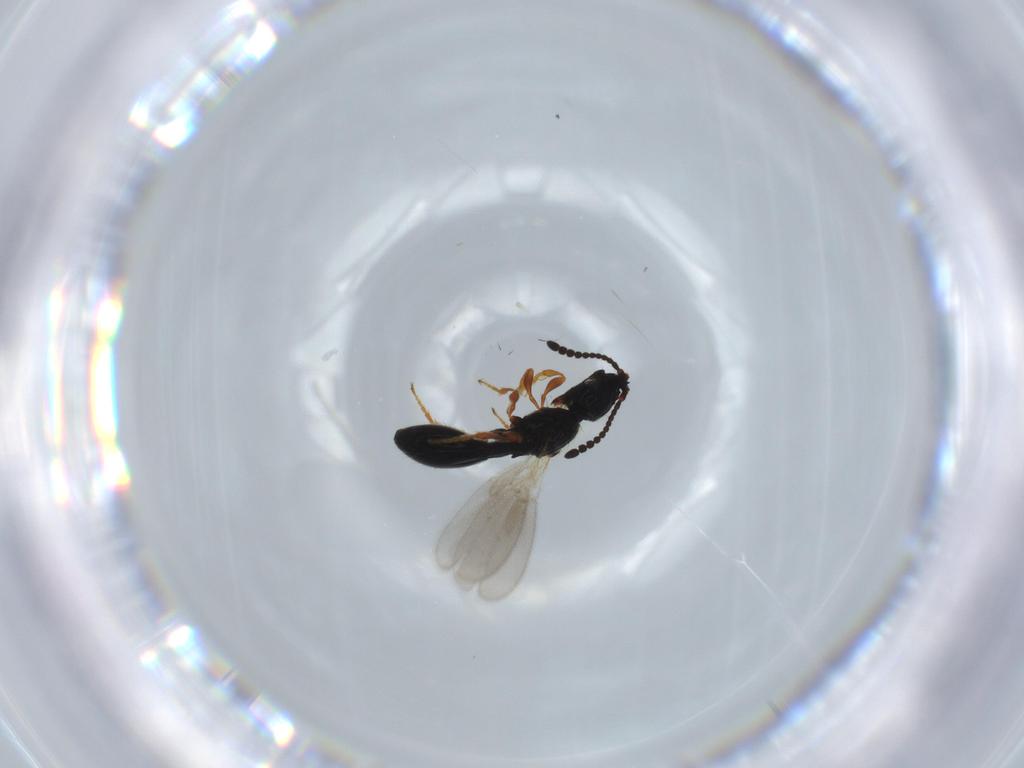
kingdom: Animalia
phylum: Arthropoda
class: Insecta
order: Hymenoptera
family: Diapriidae
